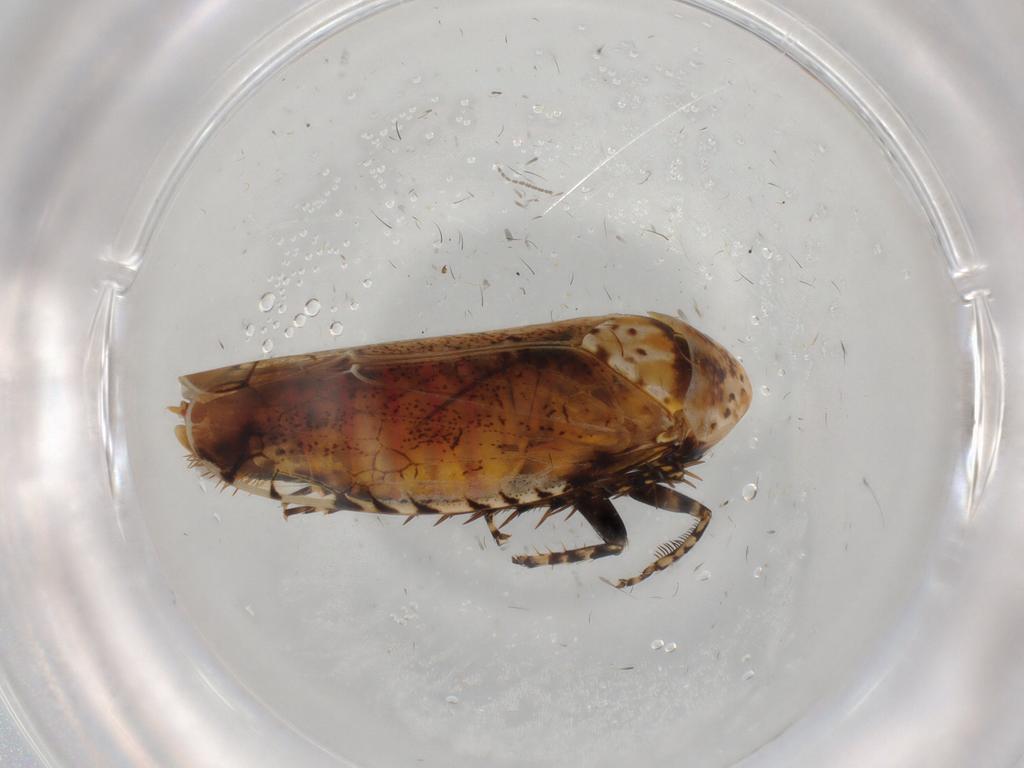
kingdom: Animalia
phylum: Arthropoda
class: Insecta
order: Hemiptera
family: Cicadellidae
